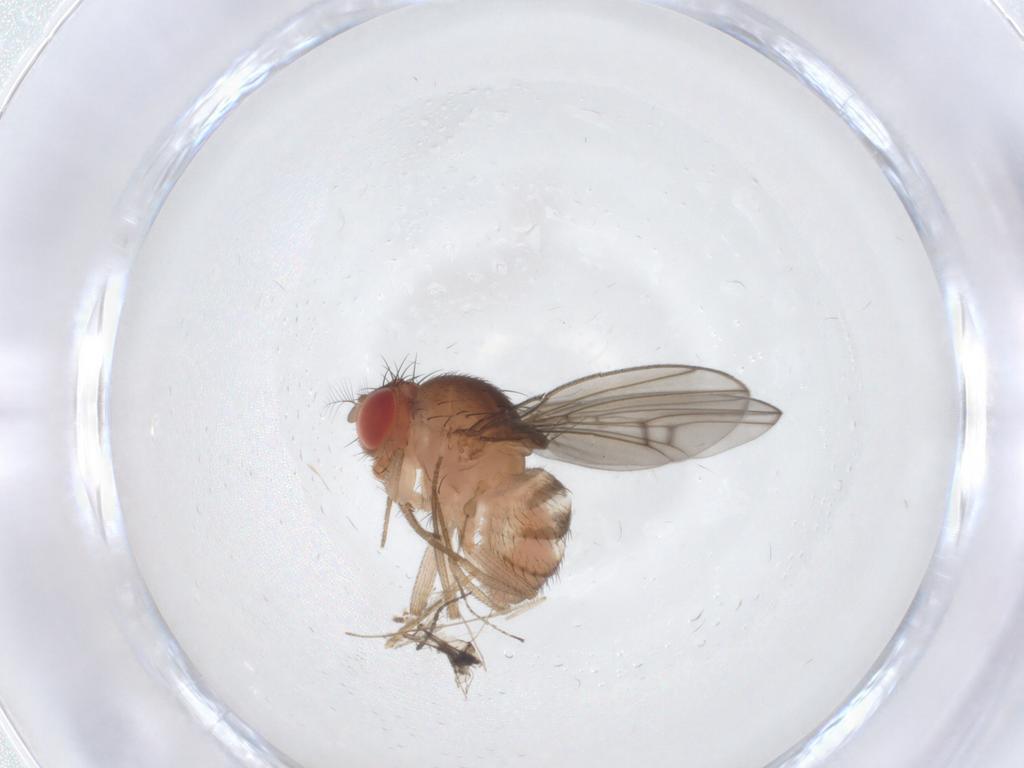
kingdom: Animalia
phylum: Arthropoda
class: Insecta
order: Diptera
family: Drosophilidae
